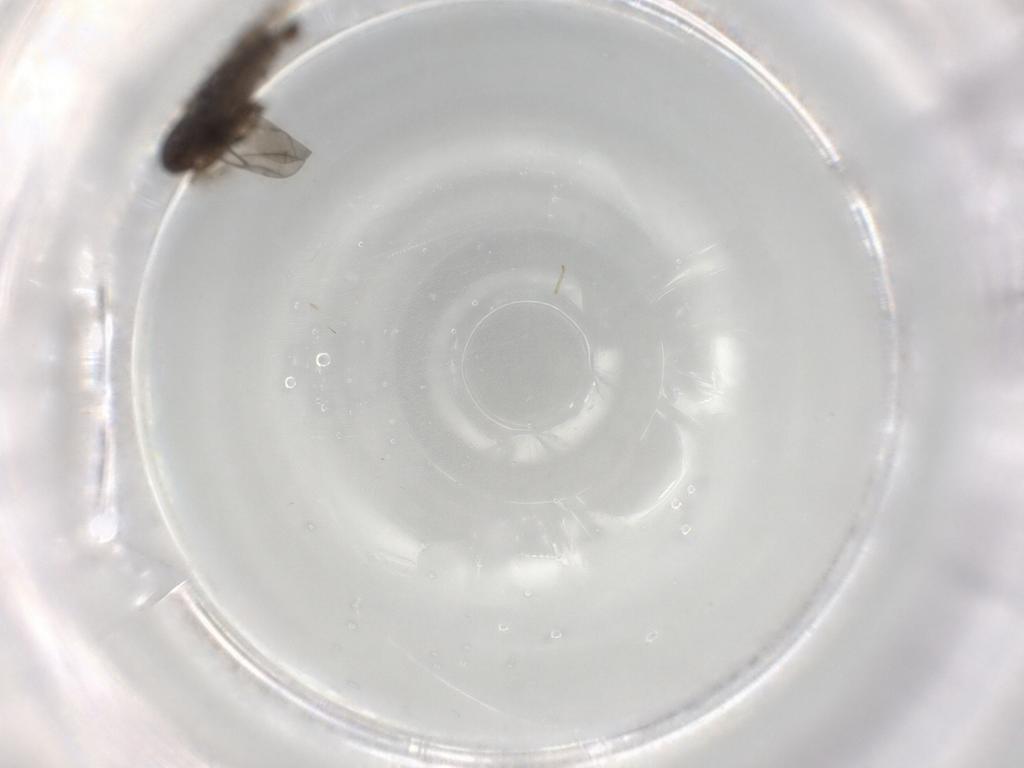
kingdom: Animalia
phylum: Arthropoda
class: Insecta
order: Diptera
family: Phoridae
